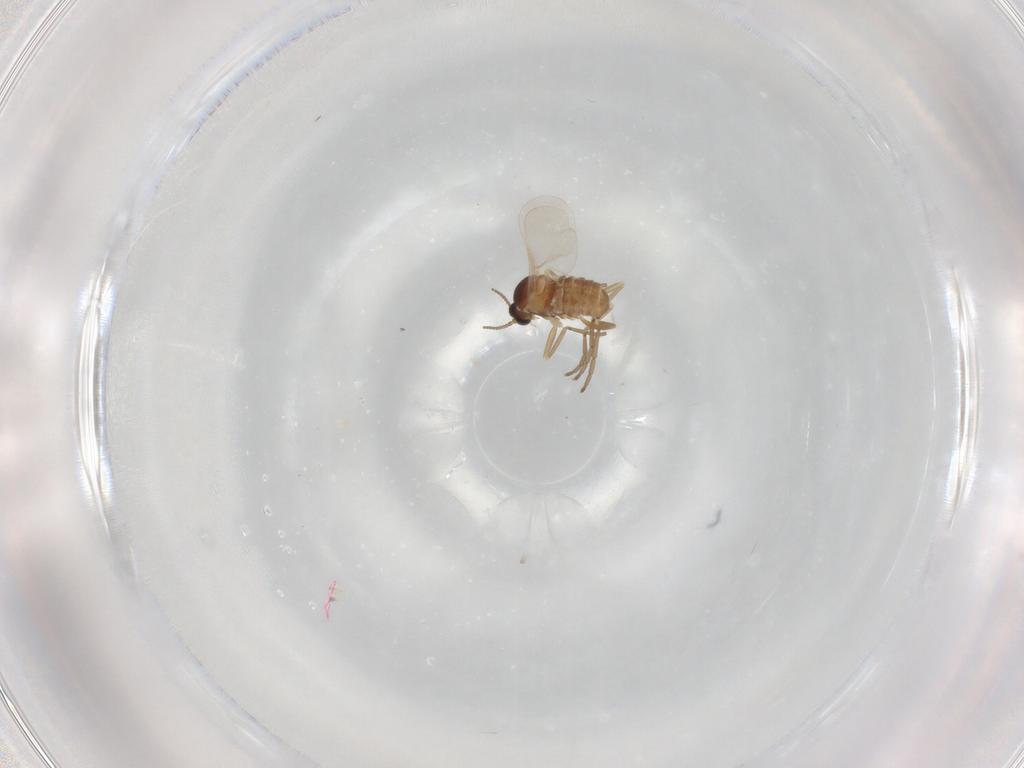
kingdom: Animalia
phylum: Arthropoda
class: Insecta
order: Diptera
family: Cecidomyiidae
